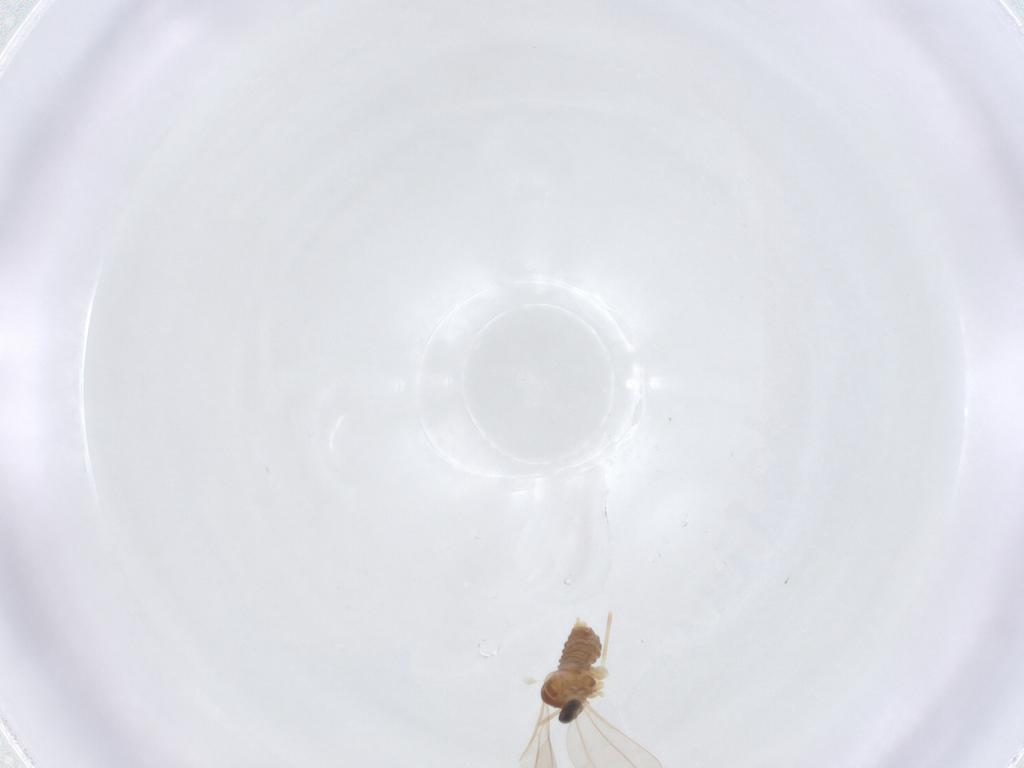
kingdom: Animalia
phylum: Arthropoda
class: Insecta
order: Diptera
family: Cecidomyiidae
